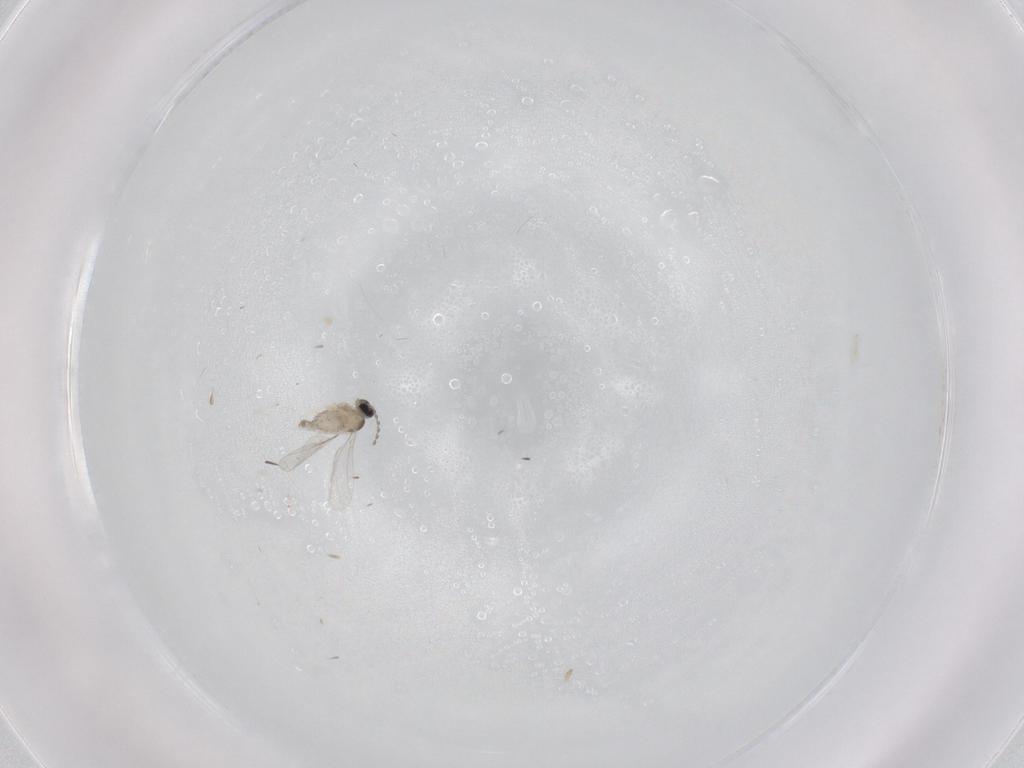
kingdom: Animalia
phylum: Arthropoda
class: Insecta
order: Diptera
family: Cecidomyiidae
